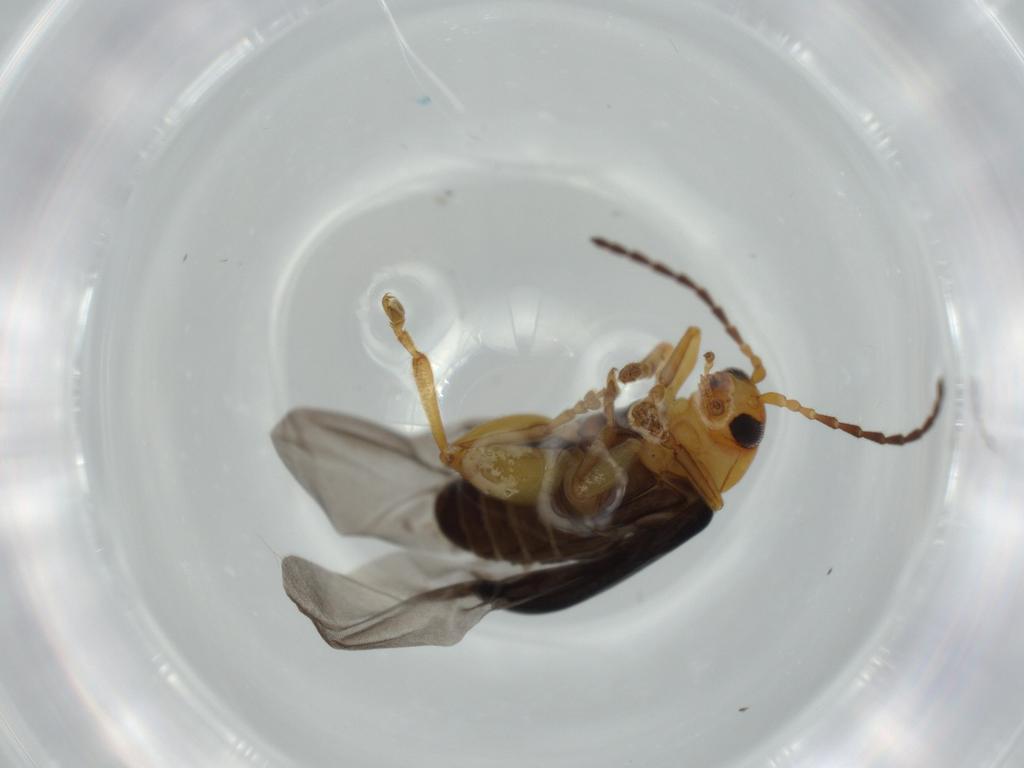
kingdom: Animalia
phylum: Arthropoda
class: Insecta
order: Coleoptera
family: Chrysomelidae
